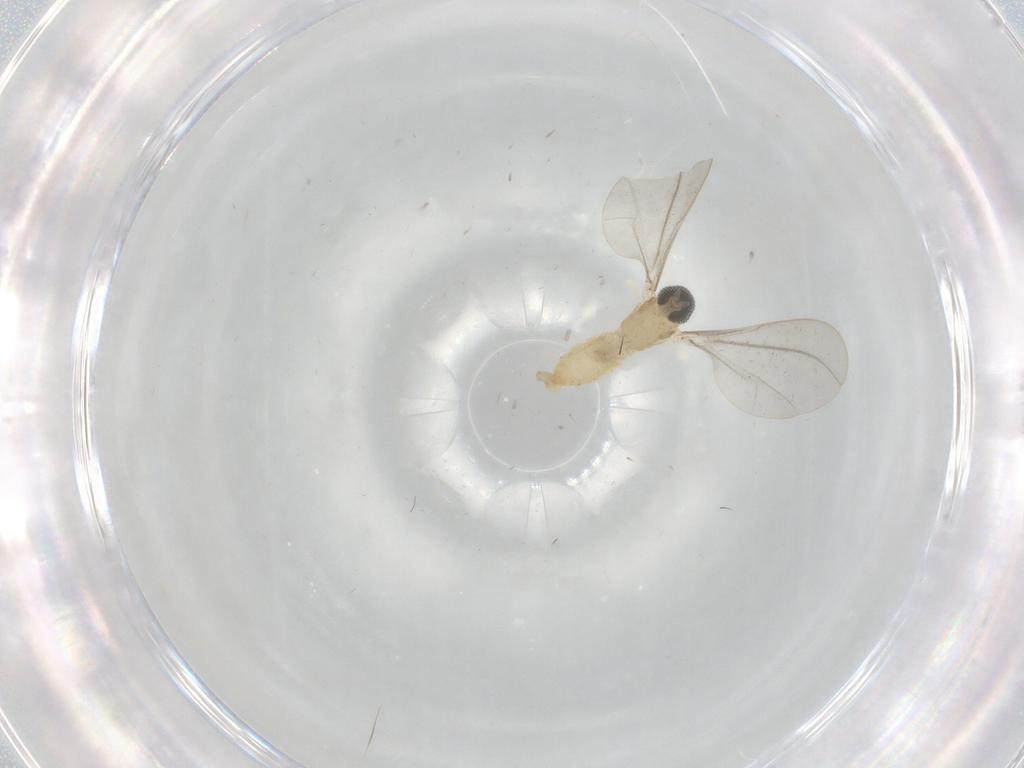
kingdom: Animalia
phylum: Arthropoda
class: Insecta
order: Diptera
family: Cecidomyiidae
